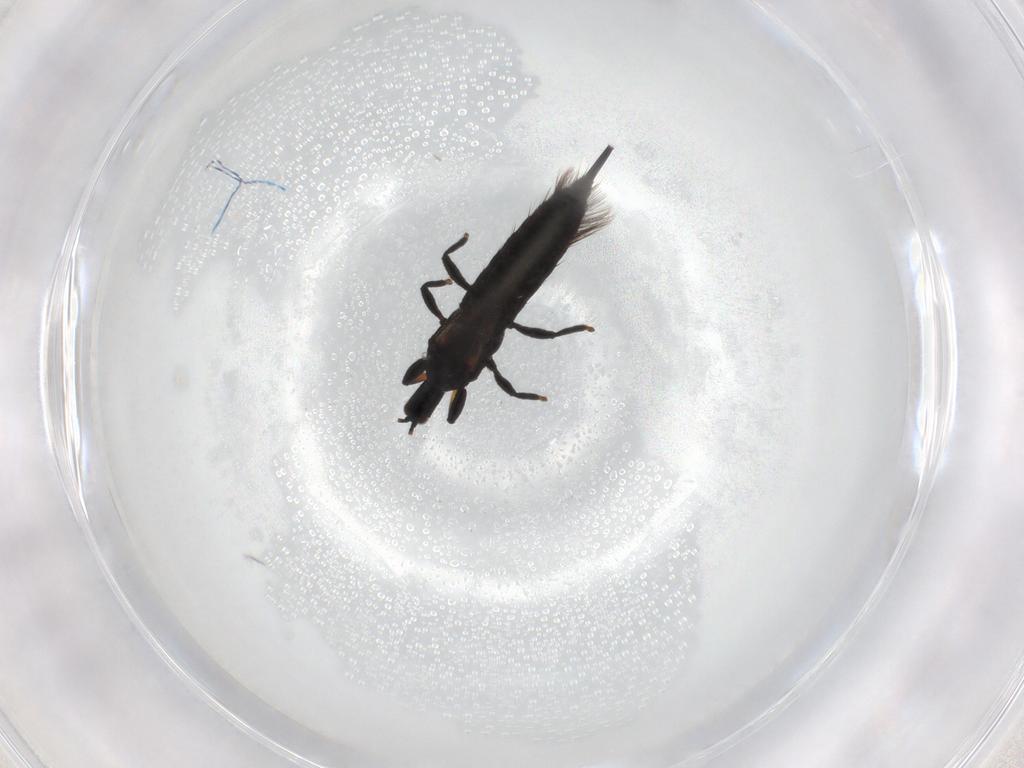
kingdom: Animalia
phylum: Arthropoda
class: Insecta
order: Thysanoptera
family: Phlaeothripidae
